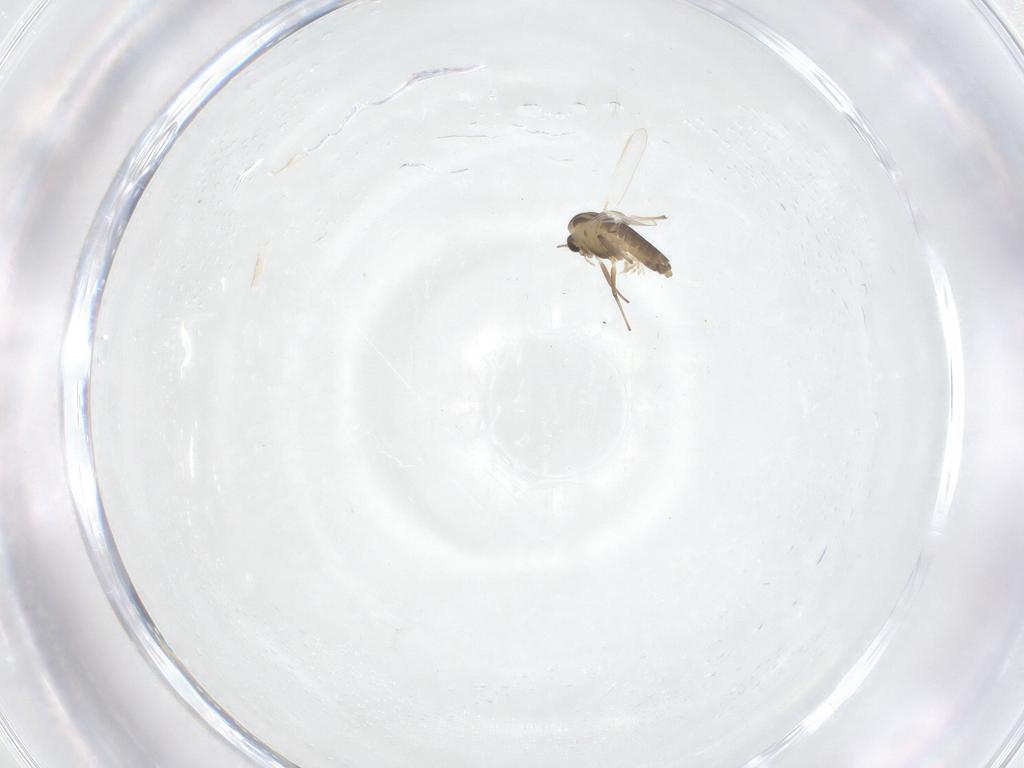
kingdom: Animalia
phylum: Arthropoda
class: Insecta
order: Diptera
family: Chironomidae
